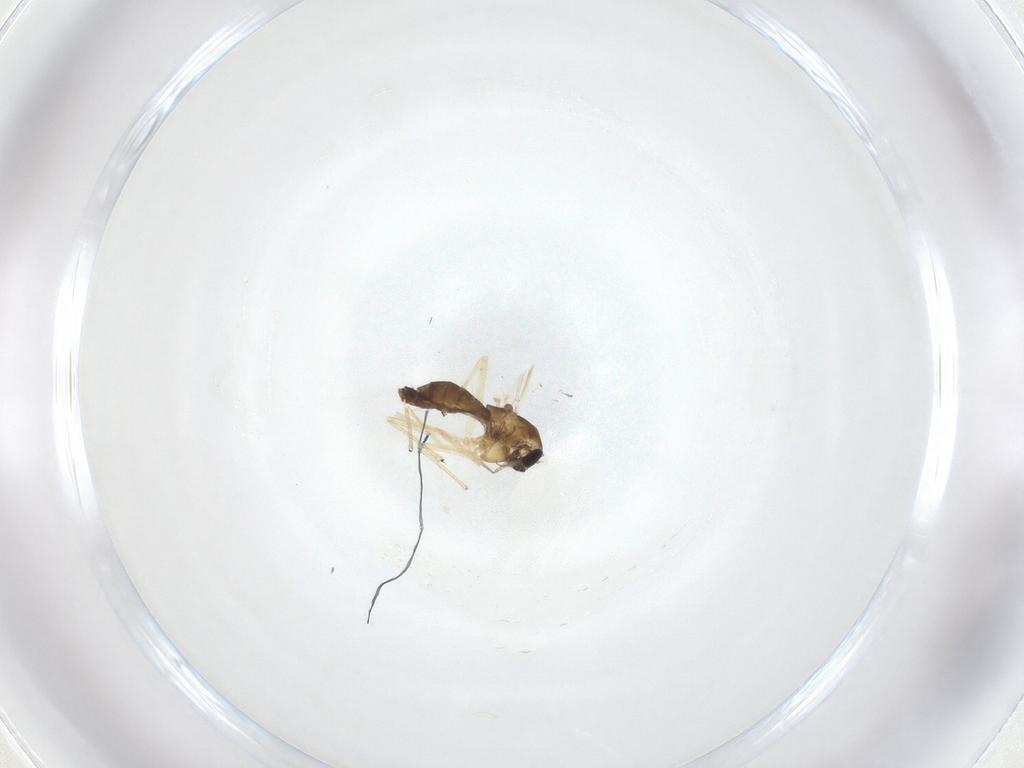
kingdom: Animalia
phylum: Arthropoda
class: Insecta
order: Diptera
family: Chironomidae
